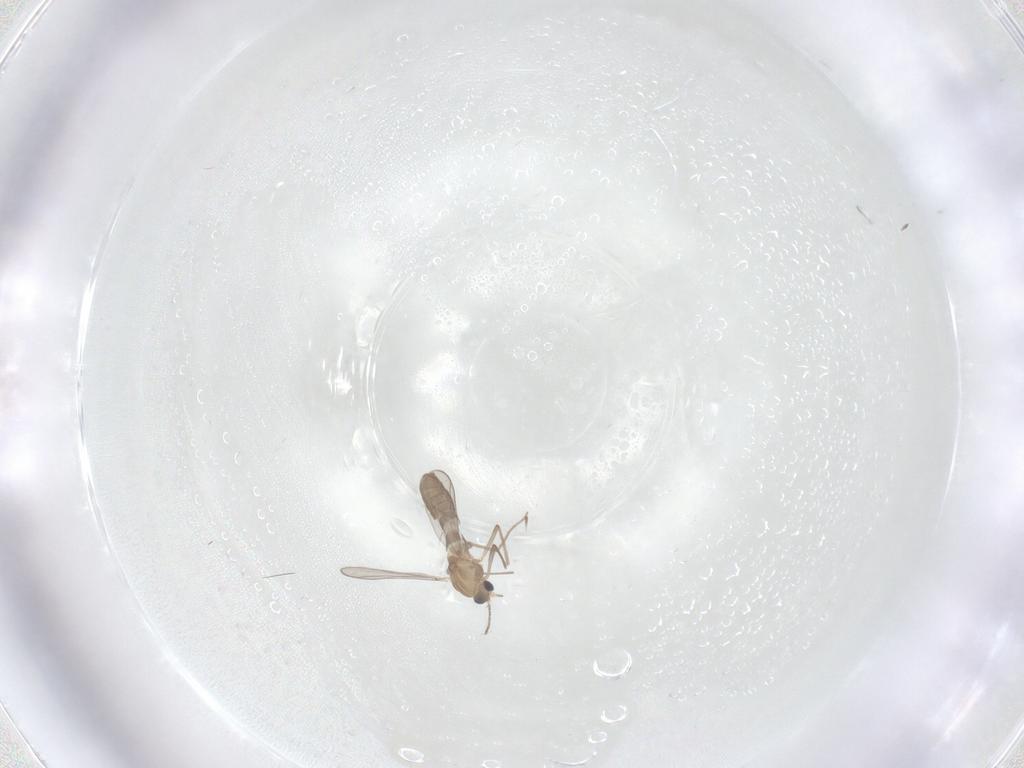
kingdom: Animalia
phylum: Arthropoda
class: Insecta
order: Diptera
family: Chironomidae
